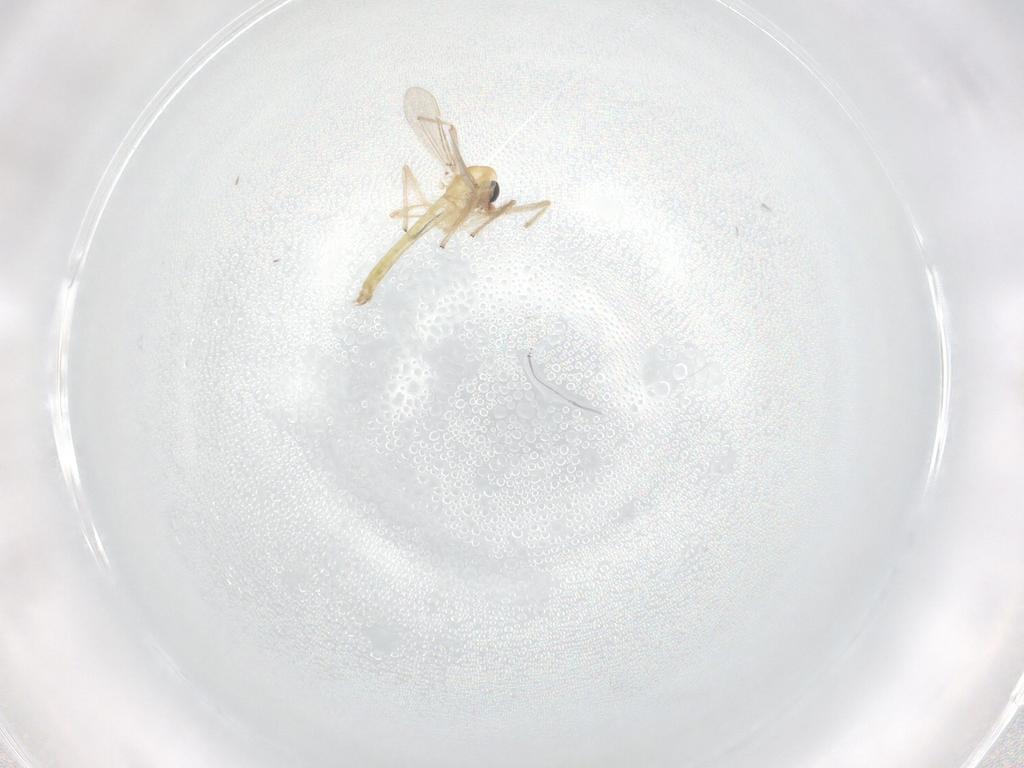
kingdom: Animalia
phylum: Arthropoda
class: Insecta
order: Diptera
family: Chironomidae
